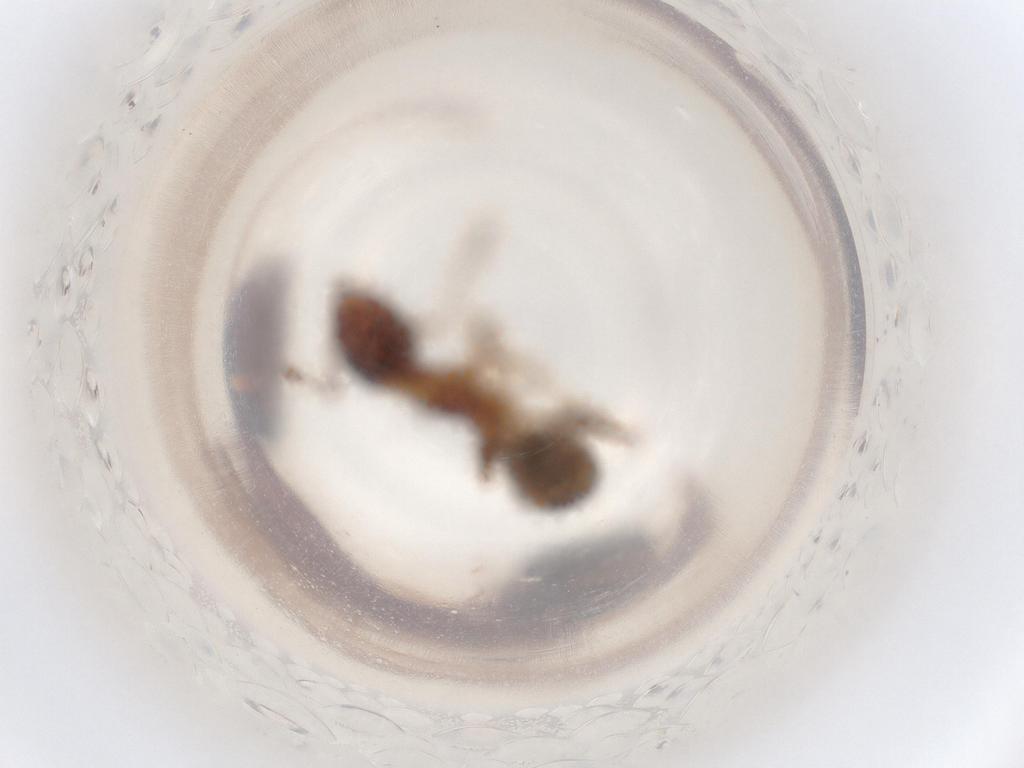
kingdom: Animalia
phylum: Arthropoda
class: Insecta
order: Hymenoptera
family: Formicidae
